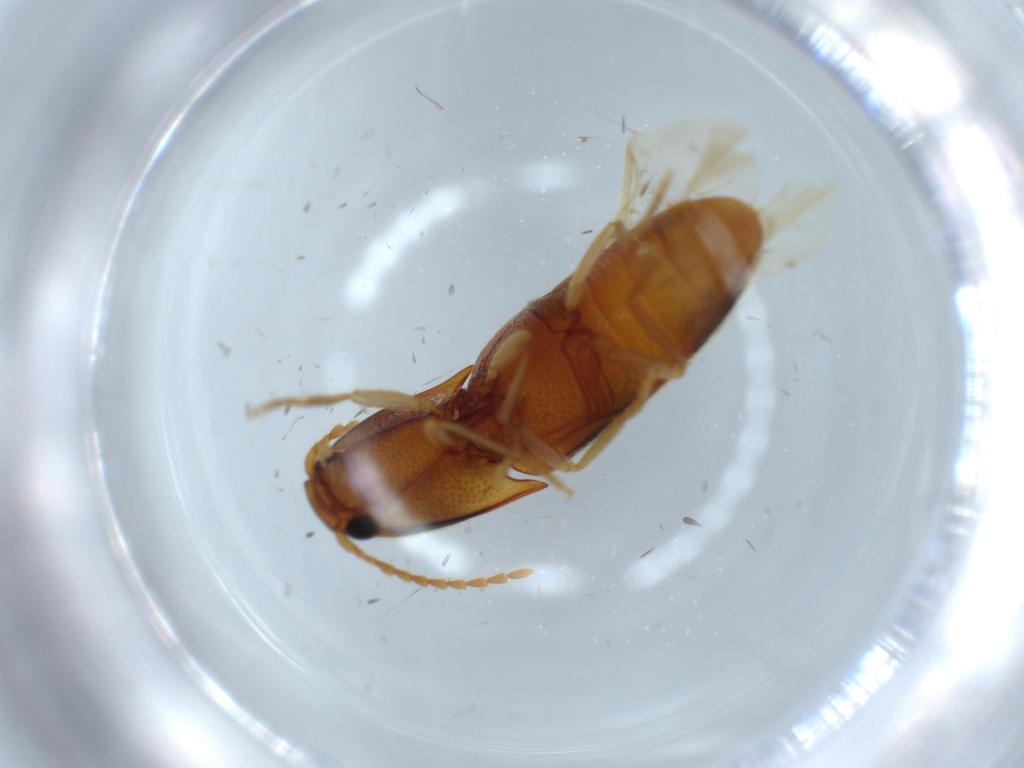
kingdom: Animalia
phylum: Arthropoda
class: Insecta
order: Coleoptera
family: Elateridae
